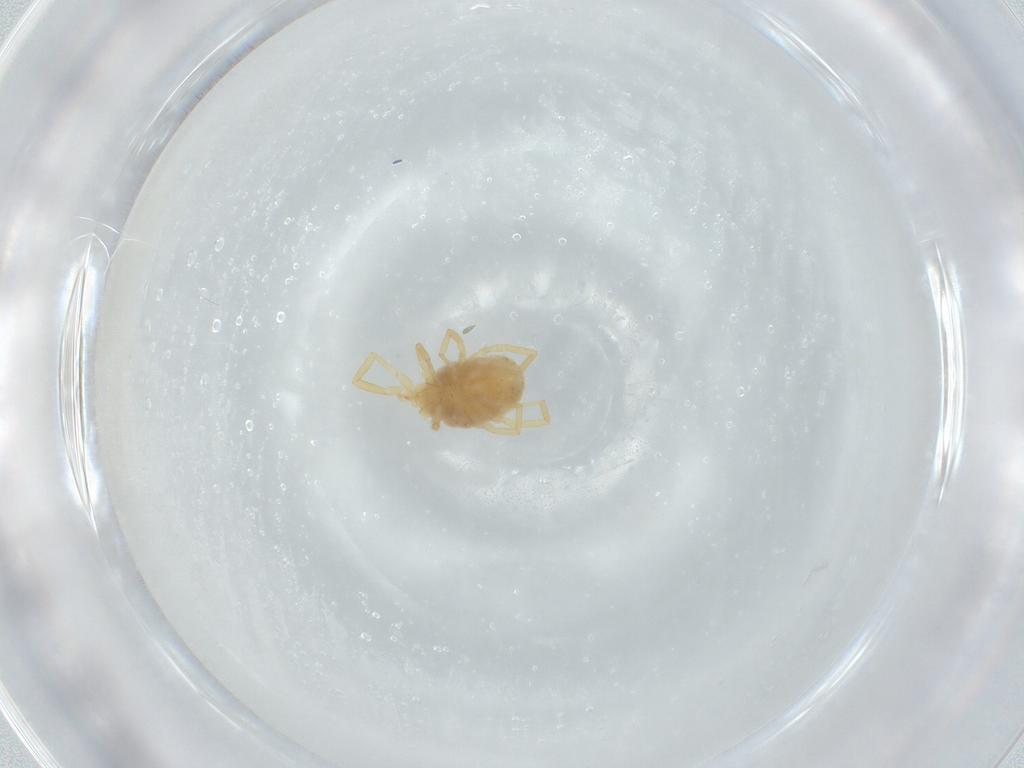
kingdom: Animalia
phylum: Arthropoda
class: Arachnida
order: Trombidiformes
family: Erythraeidae
